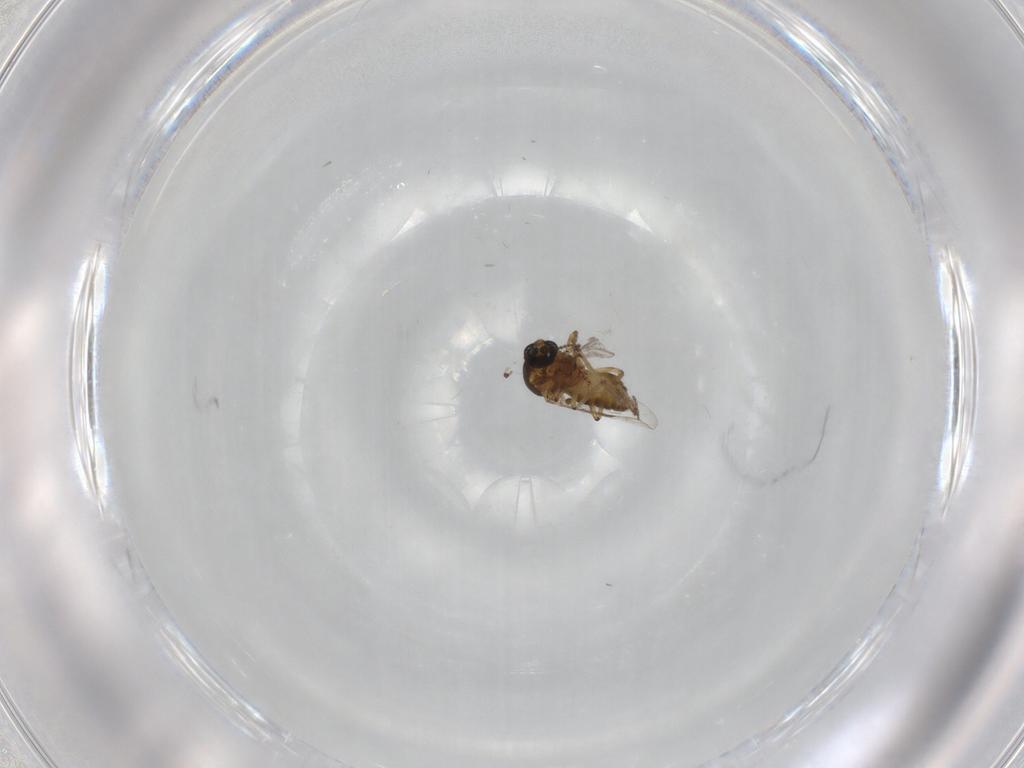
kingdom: Animalia
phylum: Arthropoda
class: Insecta
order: Diptera
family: Ceratopogonidae
